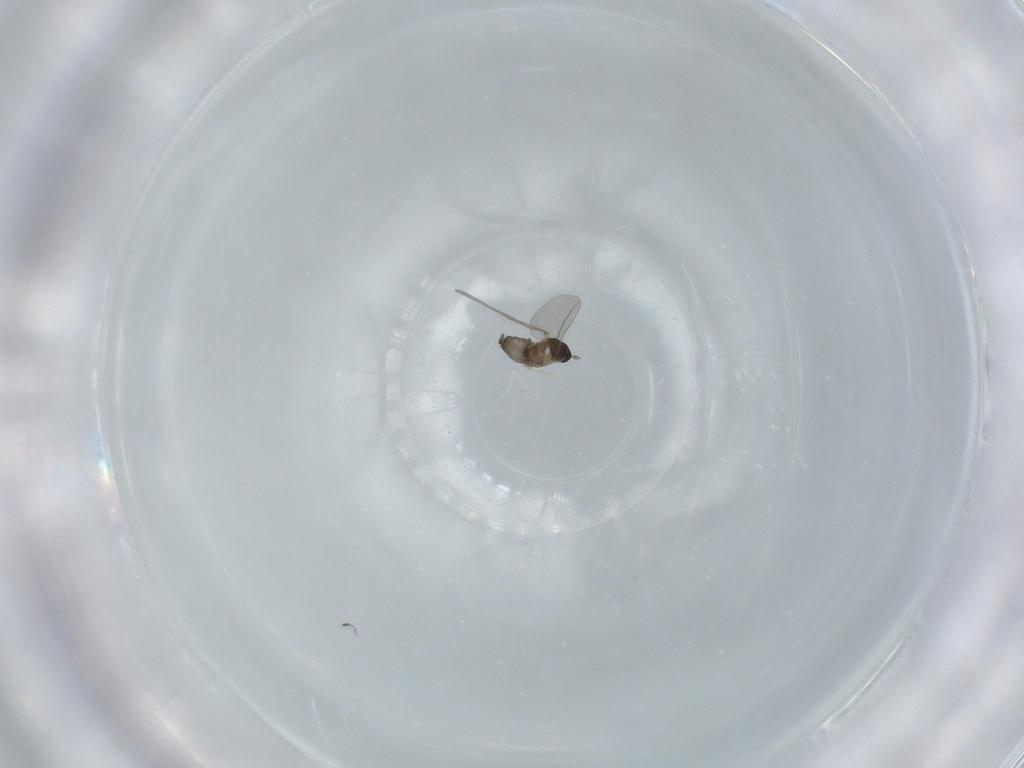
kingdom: Animalia
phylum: Arthropoda
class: Insecta
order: Diptera
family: Cecidomyiidae
